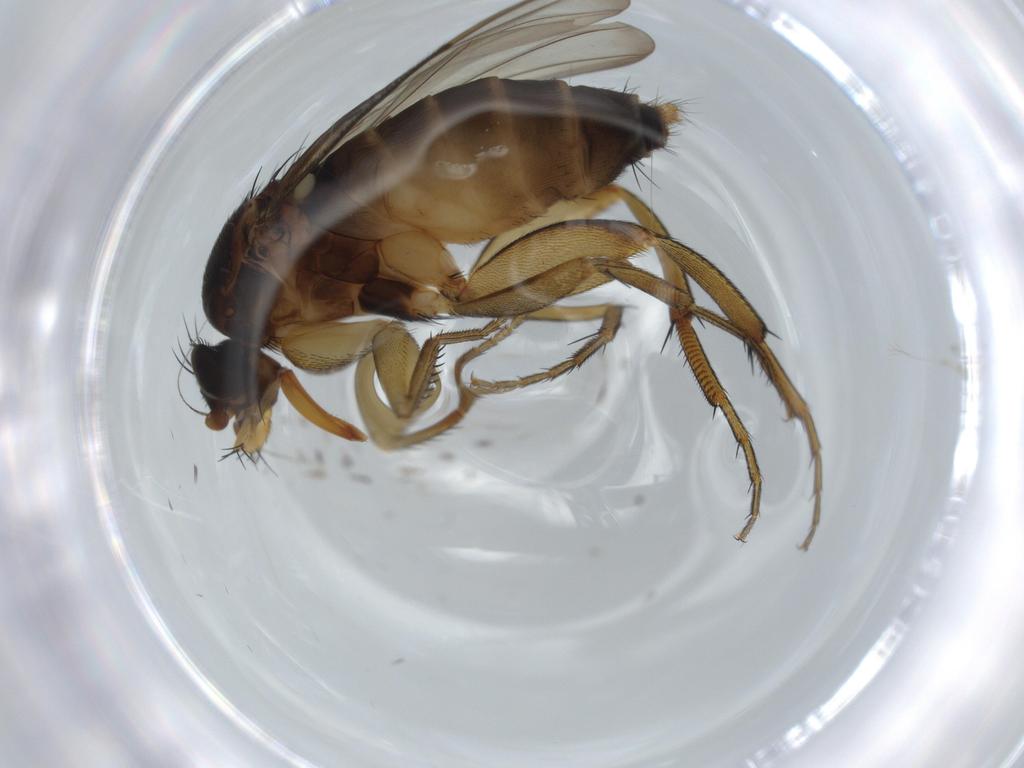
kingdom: Animalia
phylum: Arthropoda
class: Insecta
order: Diptera
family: Phoridae
